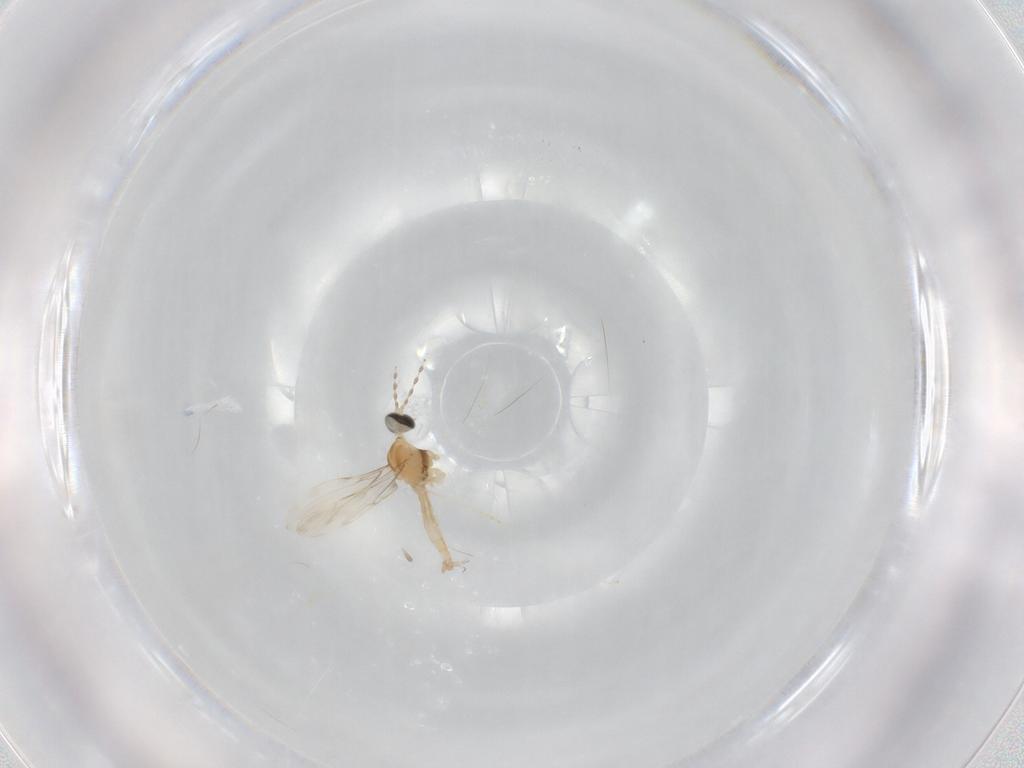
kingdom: Animalia
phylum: Arthropoda
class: Insecta
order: Diptera
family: Cecidomyiidae
